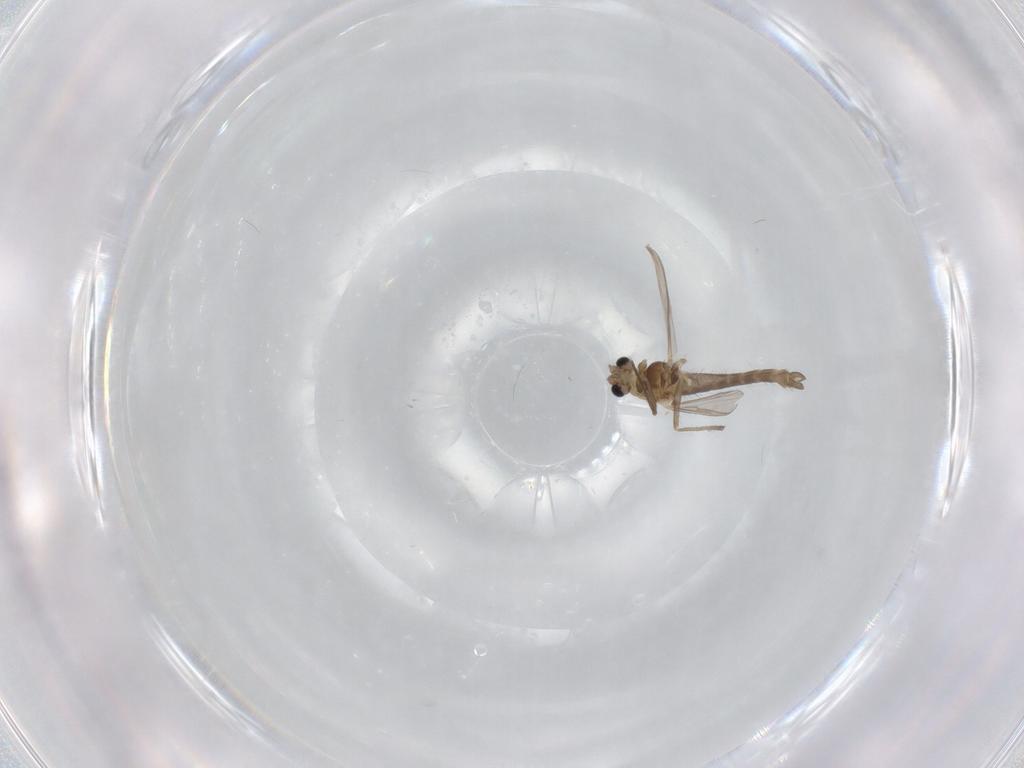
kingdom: Animalia
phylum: Arthropoda
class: Insecta
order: Diptera
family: Chironomidae
